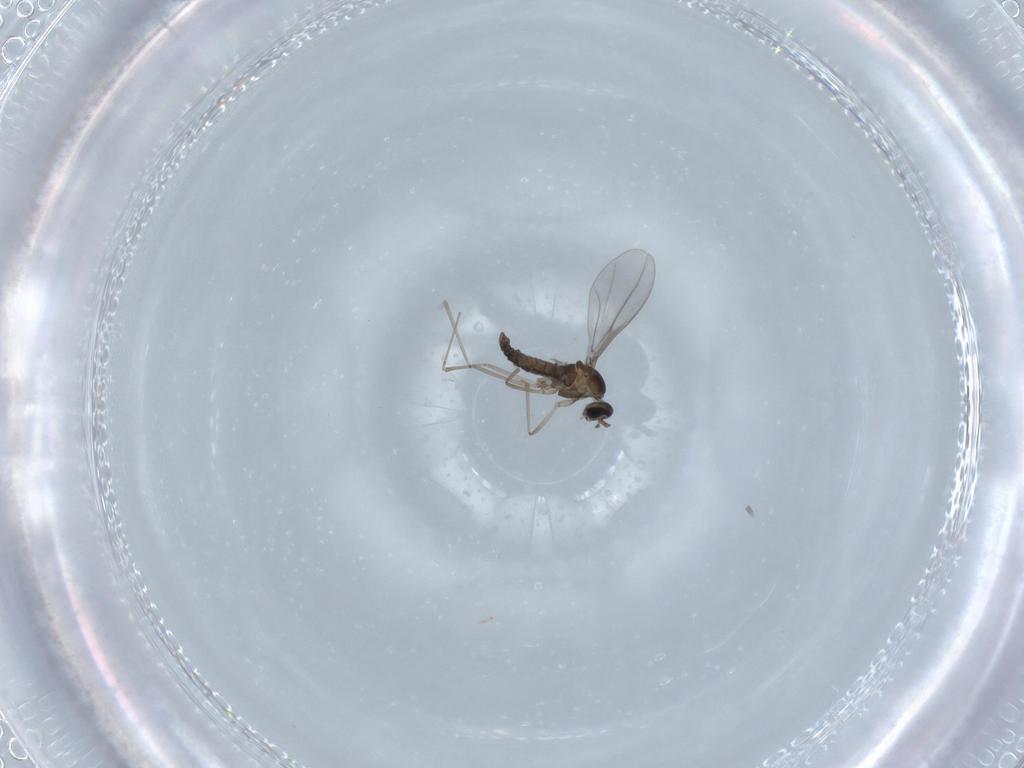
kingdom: Animalia
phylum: Arthropoda
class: Insecta
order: Diptera
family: Cecidomyiidae
